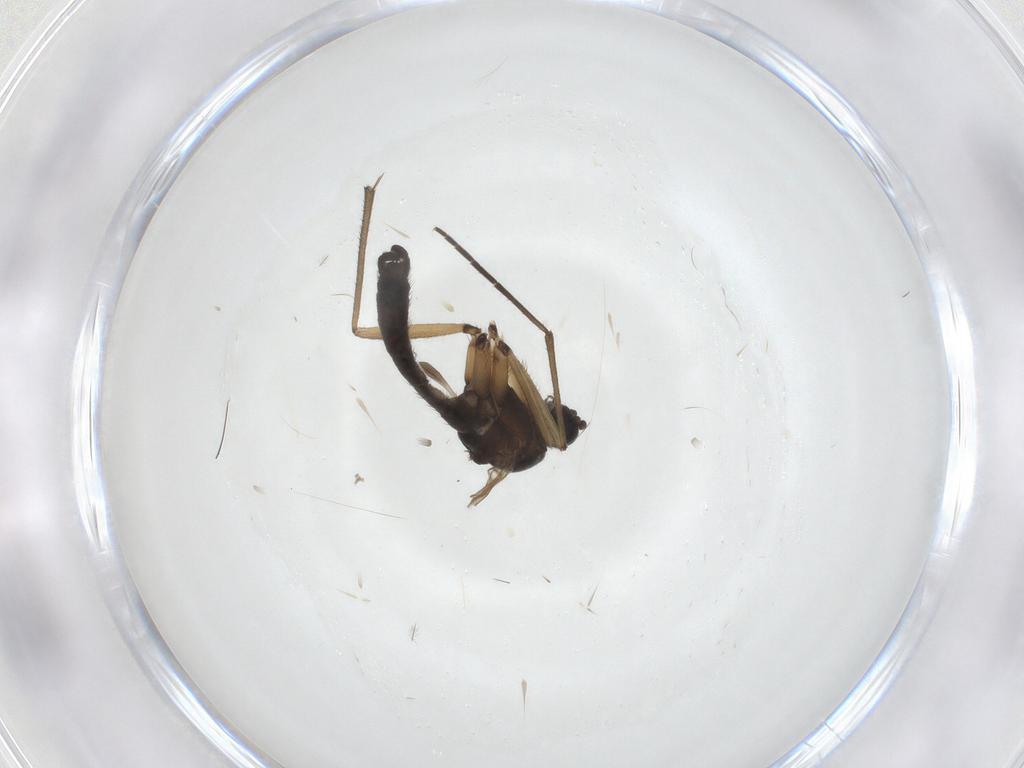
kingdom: Animalia
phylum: Arthropoda
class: Insecta
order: Diptera
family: Sciaridae
